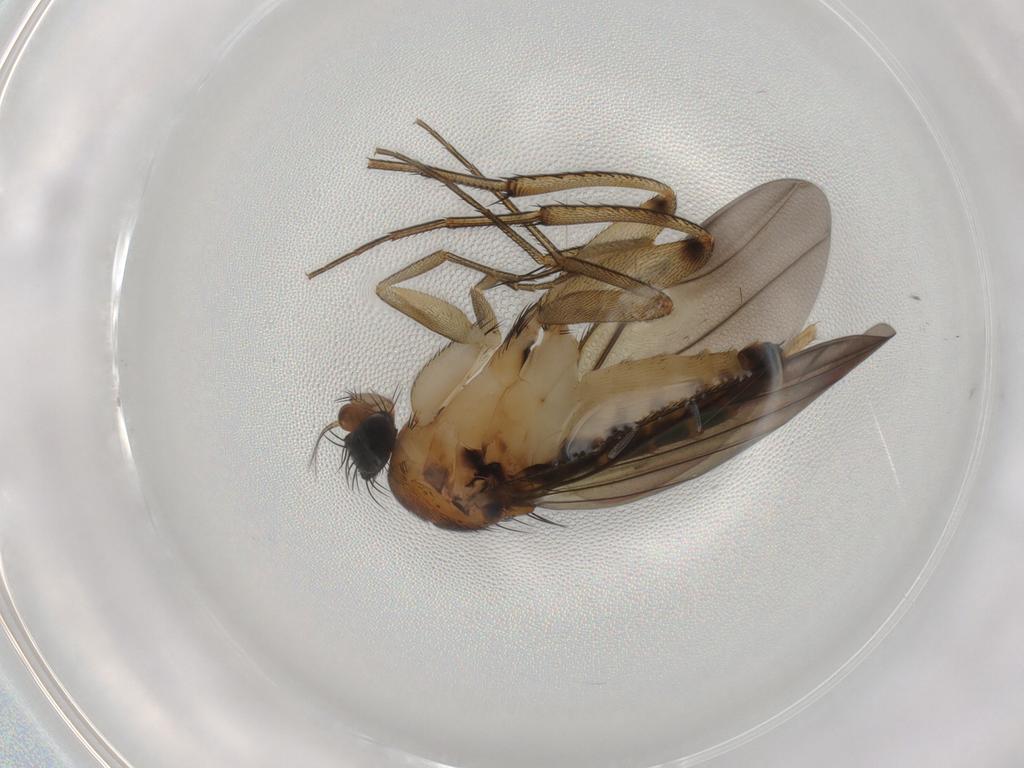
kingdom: Animalia
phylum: Arthropoda
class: Insecta
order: Diptera
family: Phoridae
